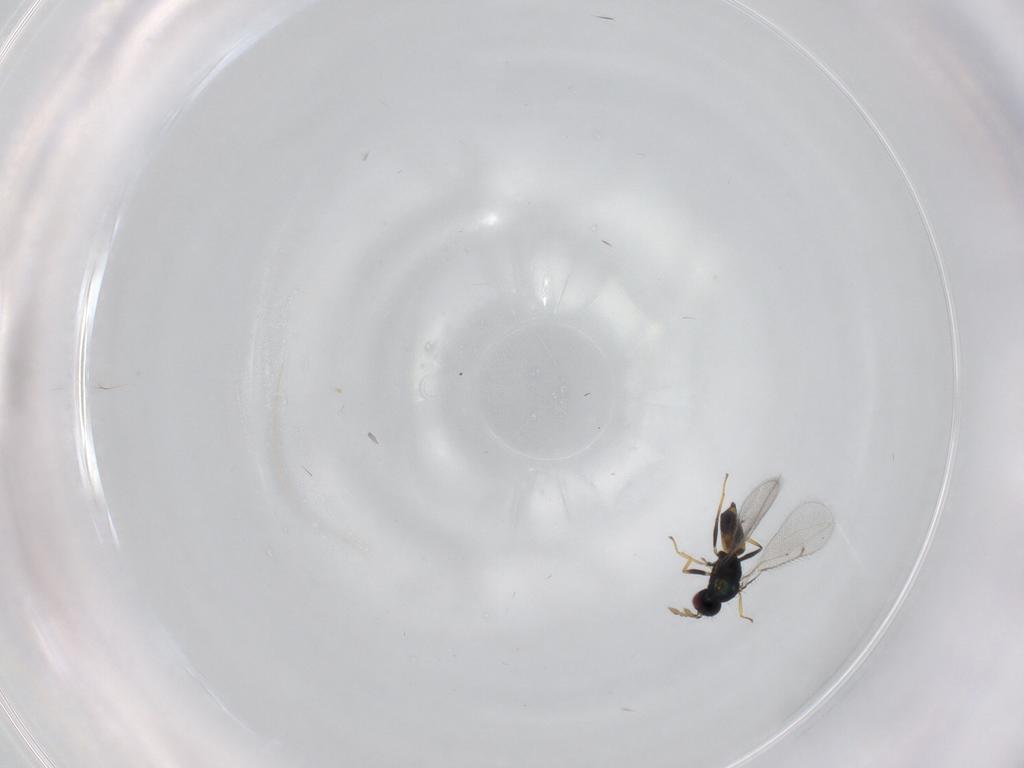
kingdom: Animalia
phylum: Arthropoda
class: Insecta
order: Hymenoptera
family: Eulophidae
